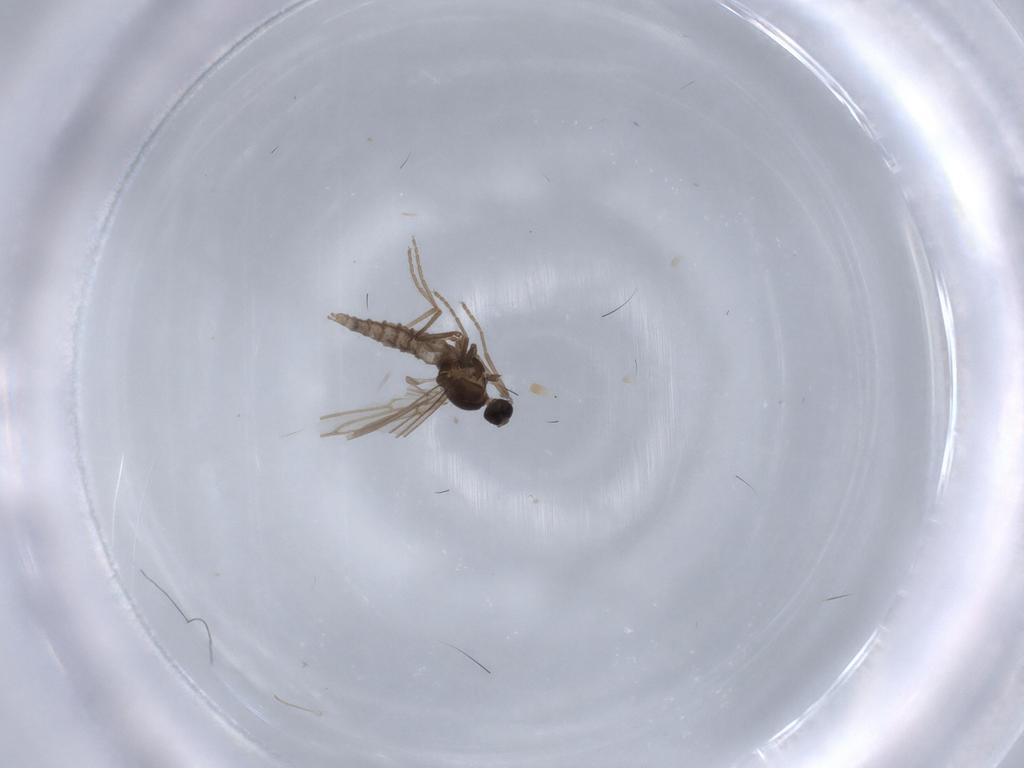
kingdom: Animalia
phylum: Arthropoda
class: Insecta
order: Diptera
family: Cecidomyiidae
